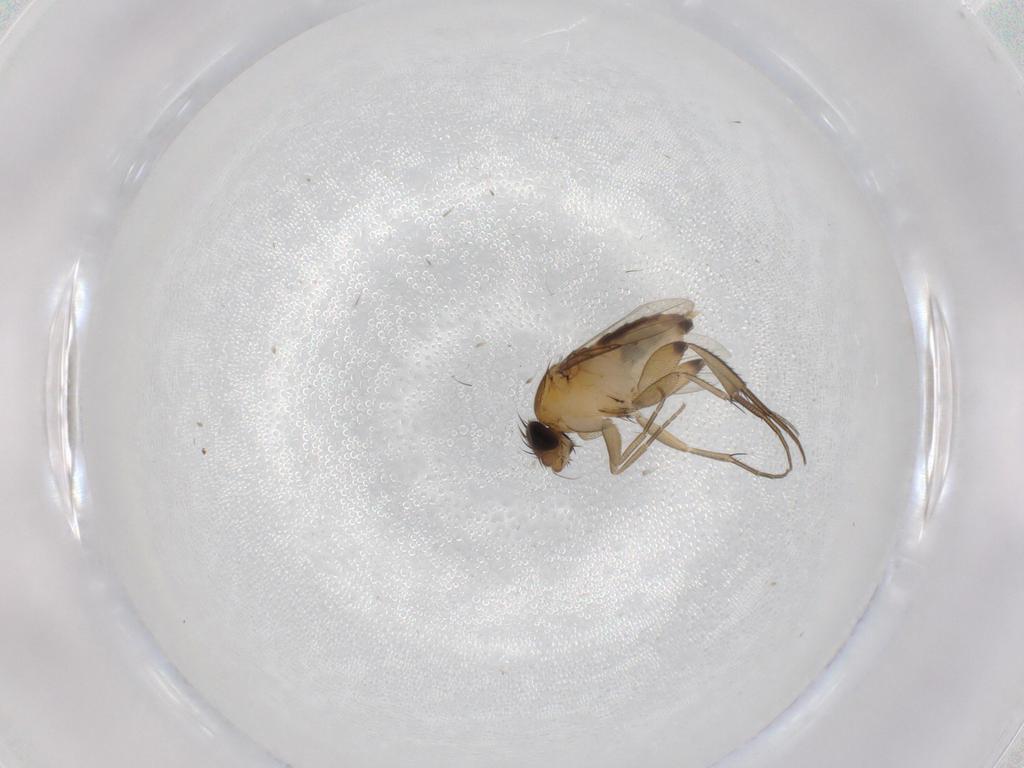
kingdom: Animalia
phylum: Arthropoda
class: Insecta
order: Diptera
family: Phoridae
